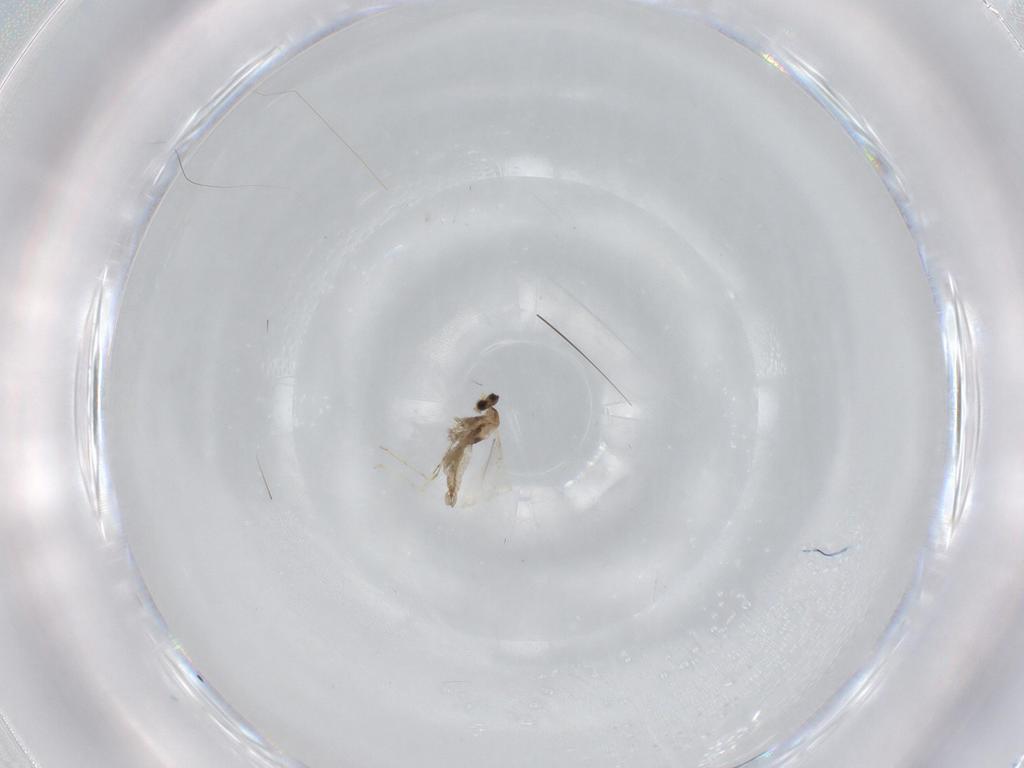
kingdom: Animalia
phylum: Arthropoda
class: Insecta
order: Diptera
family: Cecidomyiidae
